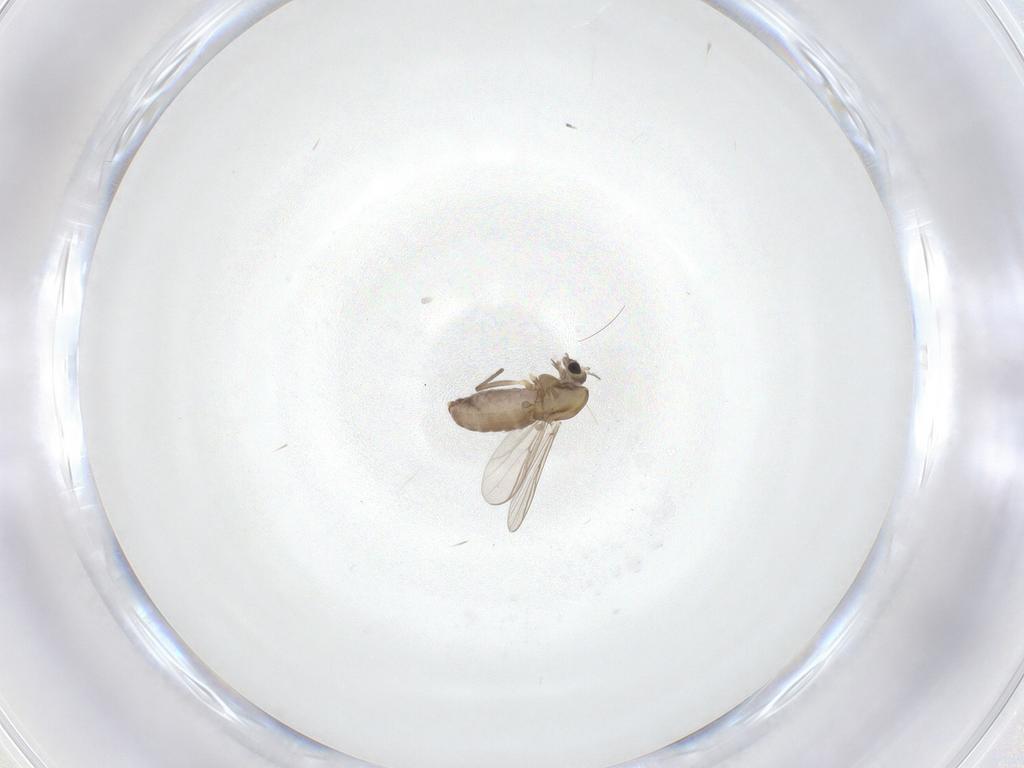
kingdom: Animalia
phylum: Arthropoda
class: Insecta
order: Diptera
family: Chironomidae
